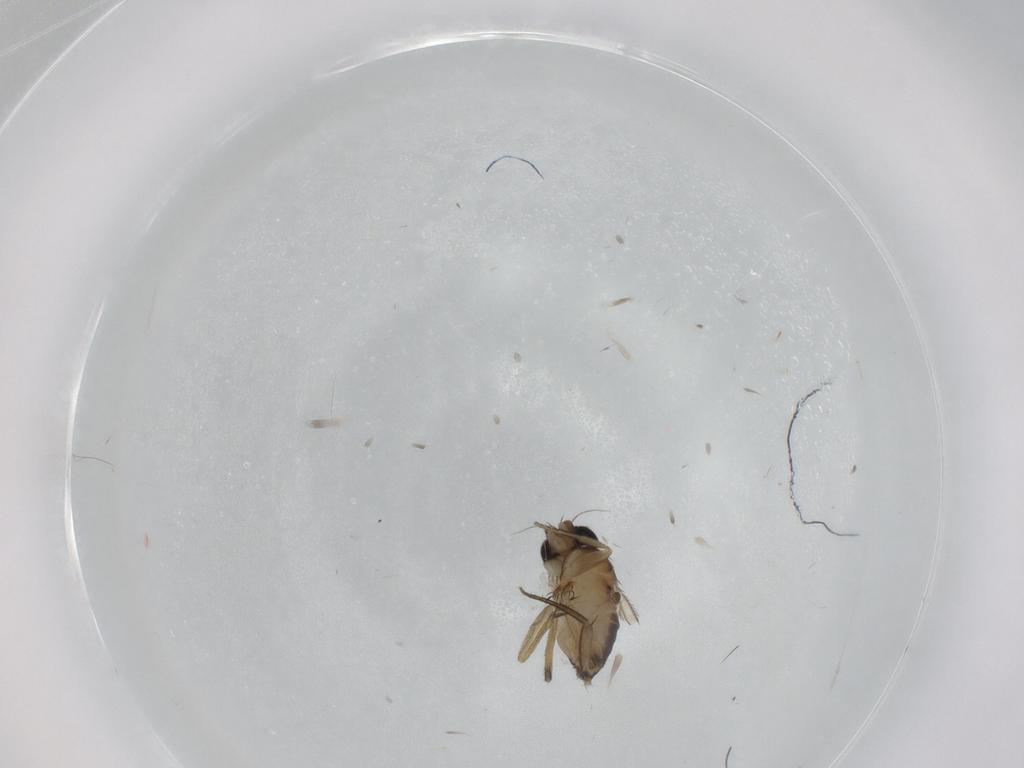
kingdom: Animalia
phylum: Arthropoda
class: Insecta
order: Diptera
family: Phoridae
